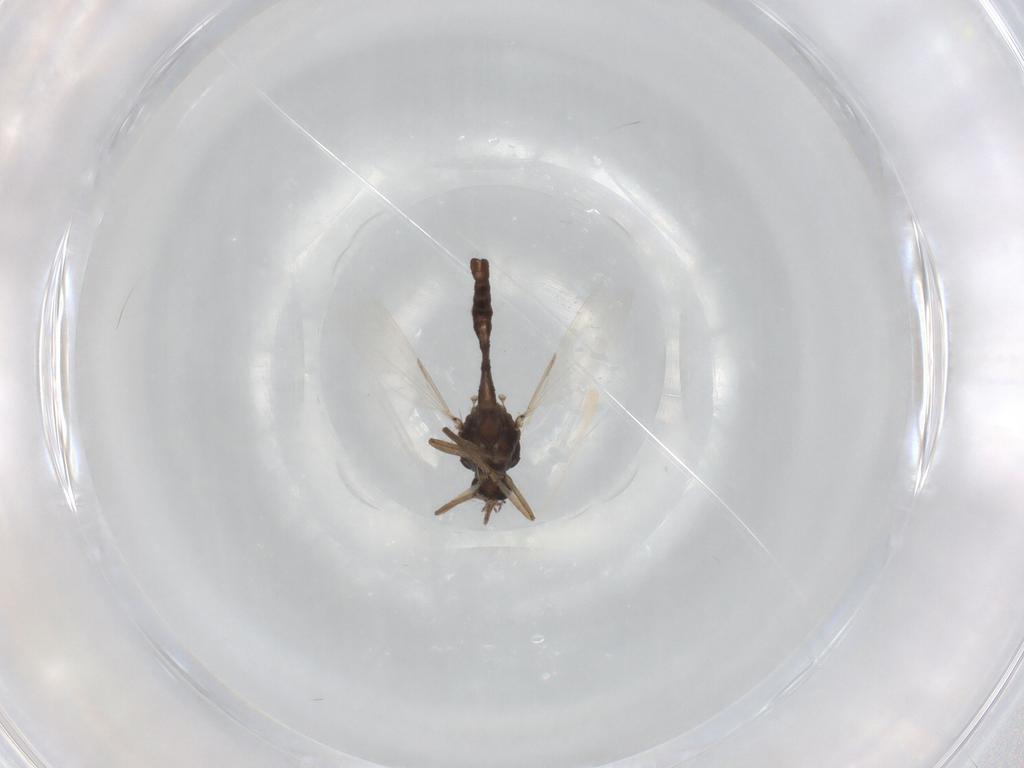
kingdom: Animalia
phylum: Arthropoda
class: Insecta
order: Diptera
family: Ceratopogonidae
